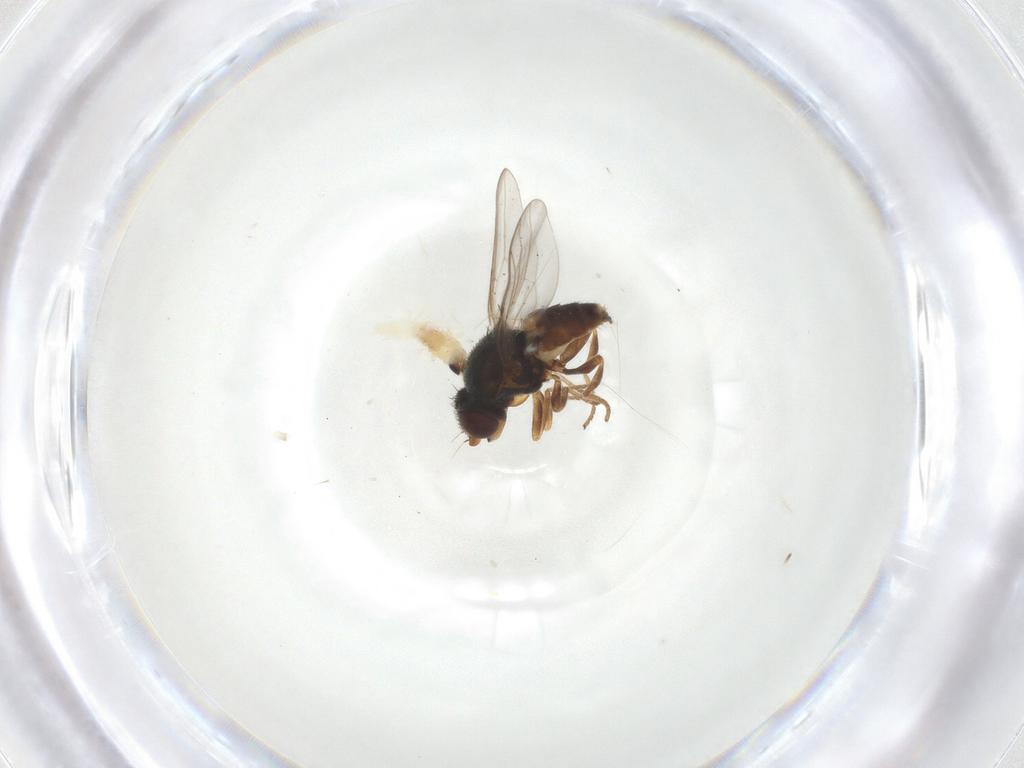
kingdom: Animalia
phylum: Arthropoda
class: Insecta
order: Diptera
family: Chloropidae
